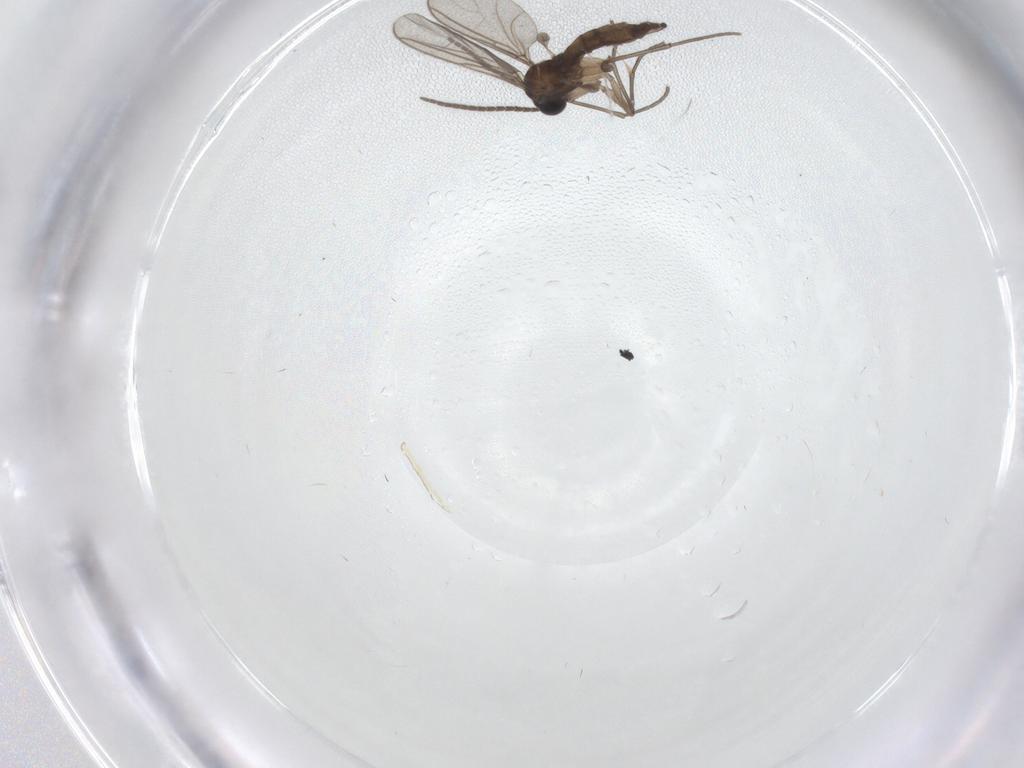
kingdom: Animalia
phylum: Arthropoda
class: Insecta
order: Diptera
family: Sciaridae
